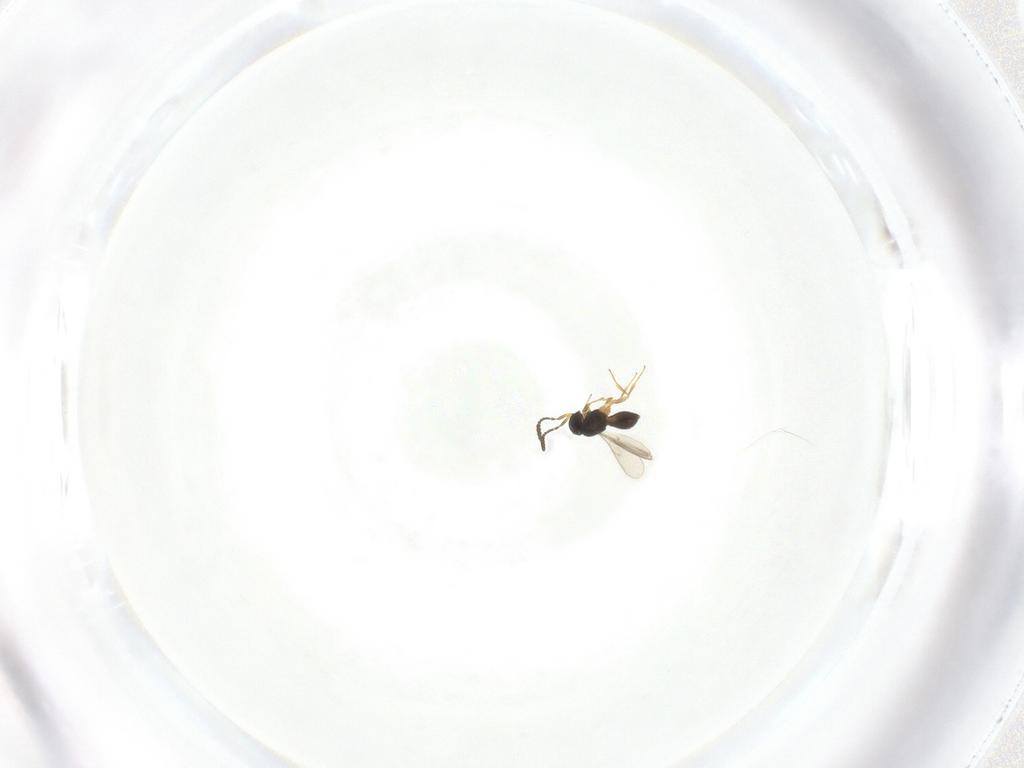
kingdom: Animalia
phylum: Arthropoda
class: Insecta
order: Hymenoptera
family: Scelionidae
